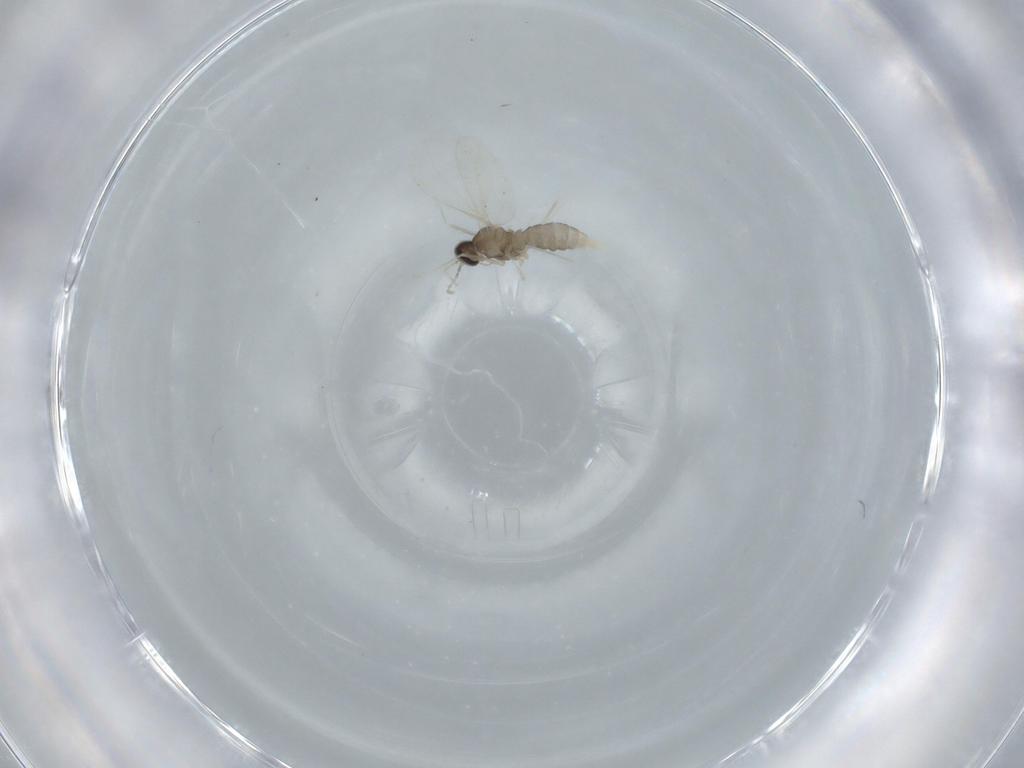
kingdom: Animalia
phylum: Arthropoda
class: Insecta
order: Diptera
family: Cecidomyiidae
